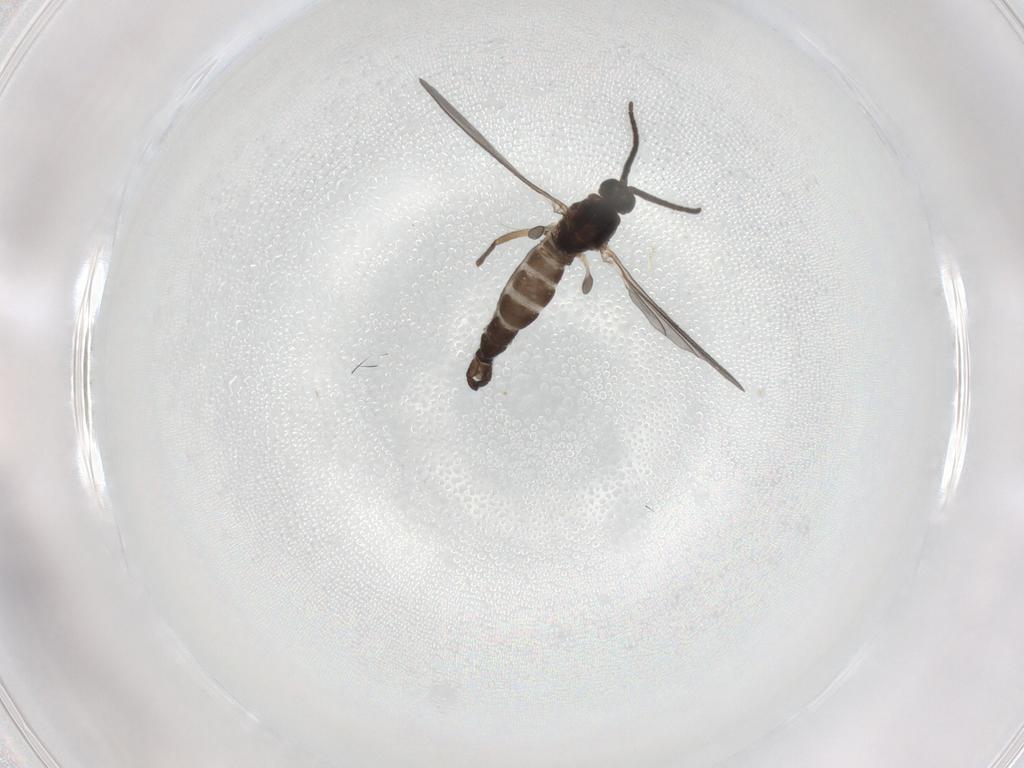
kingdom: Animalia
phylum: Arthropoda
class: Insecta
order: Diptera
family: Sciaridae
